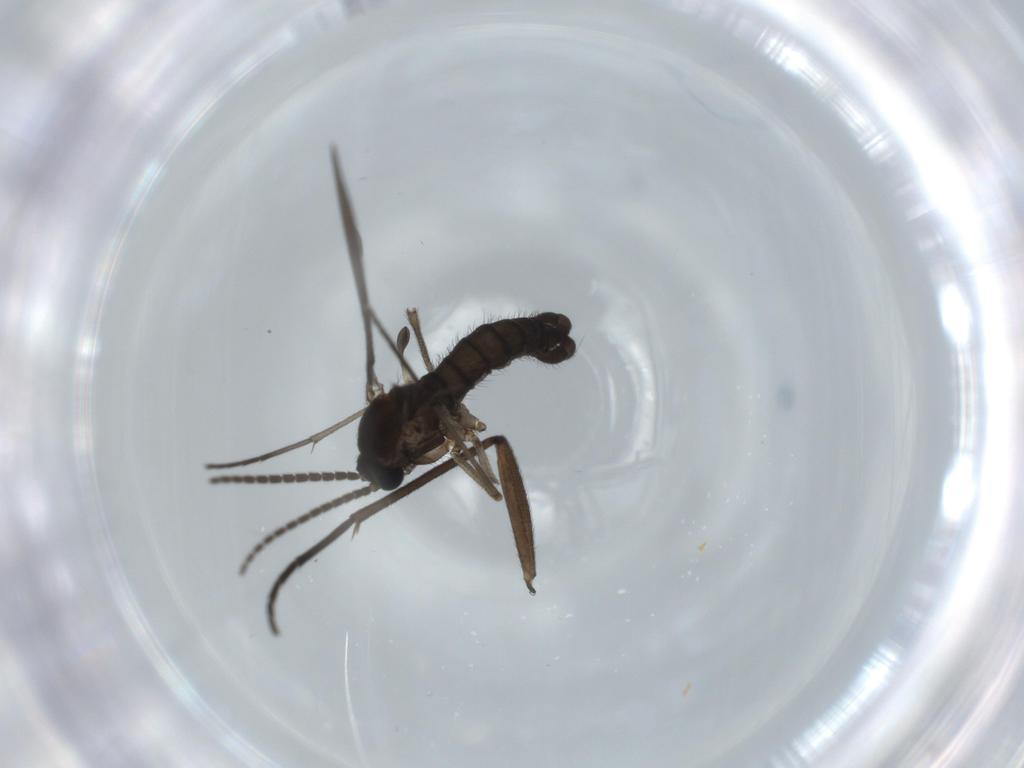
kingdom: Animalia
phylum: Arthropoda
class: Insecta
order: Diptera
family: Sciaridae
